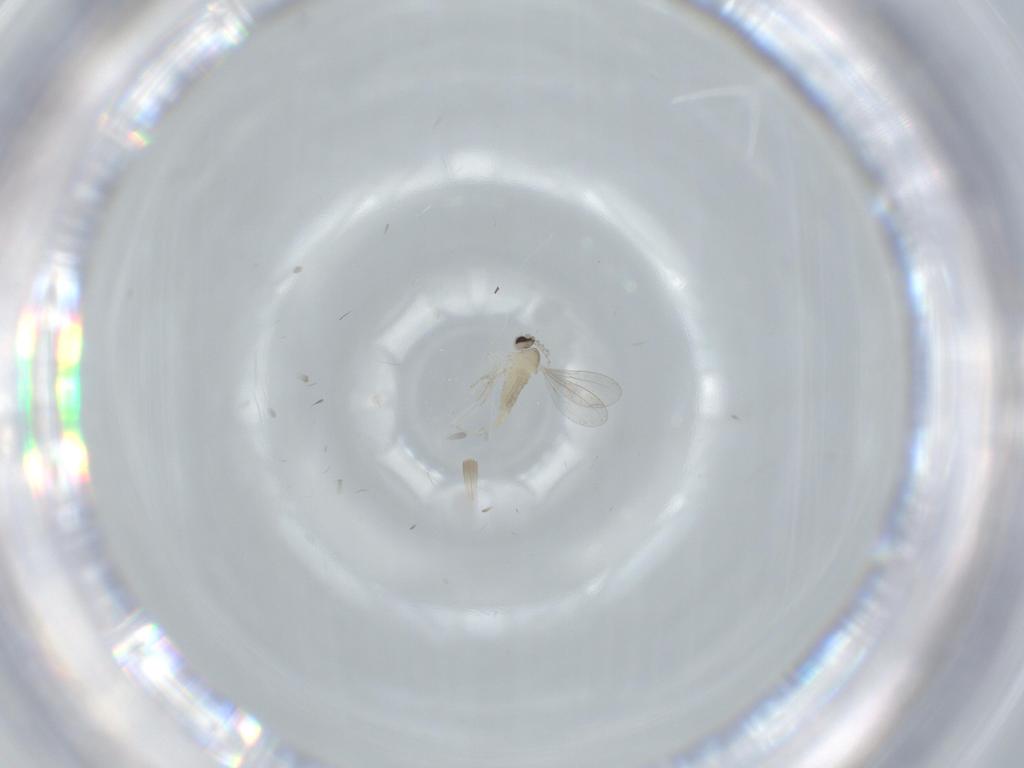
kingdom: Animalia
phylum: Arthropoda
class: Insecta
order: Diptera
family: Cecidomyiidae
